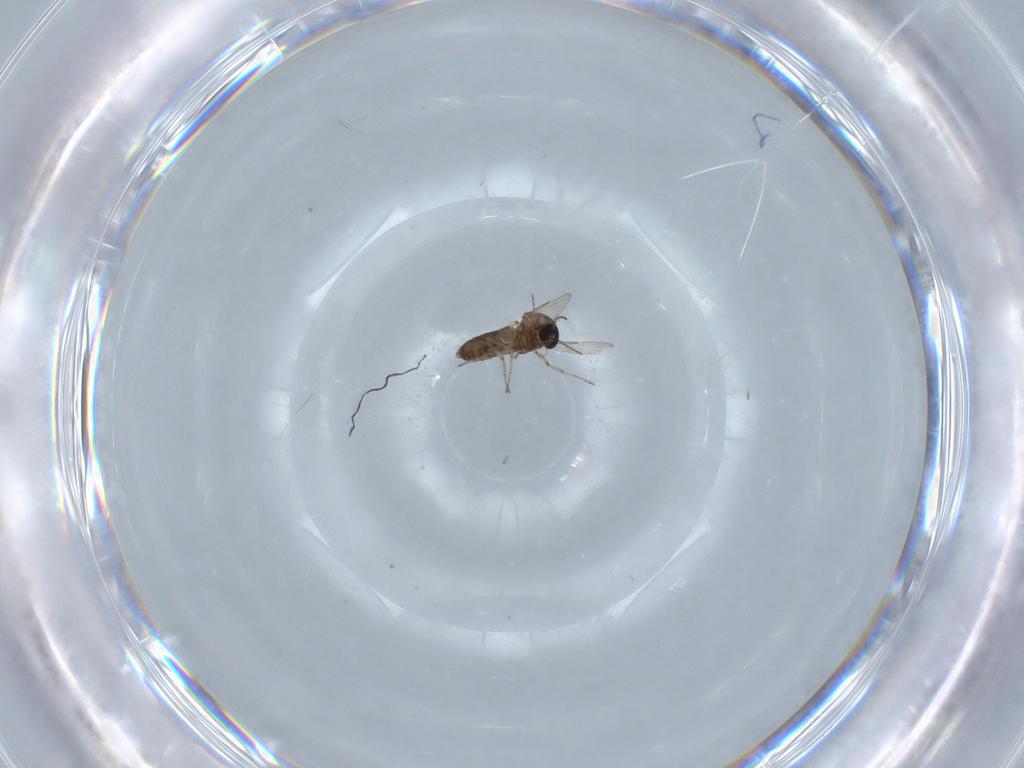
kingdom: Animalia
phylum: Arthropoda
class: Insecta
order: Diptera
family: Ceratopogonidae
